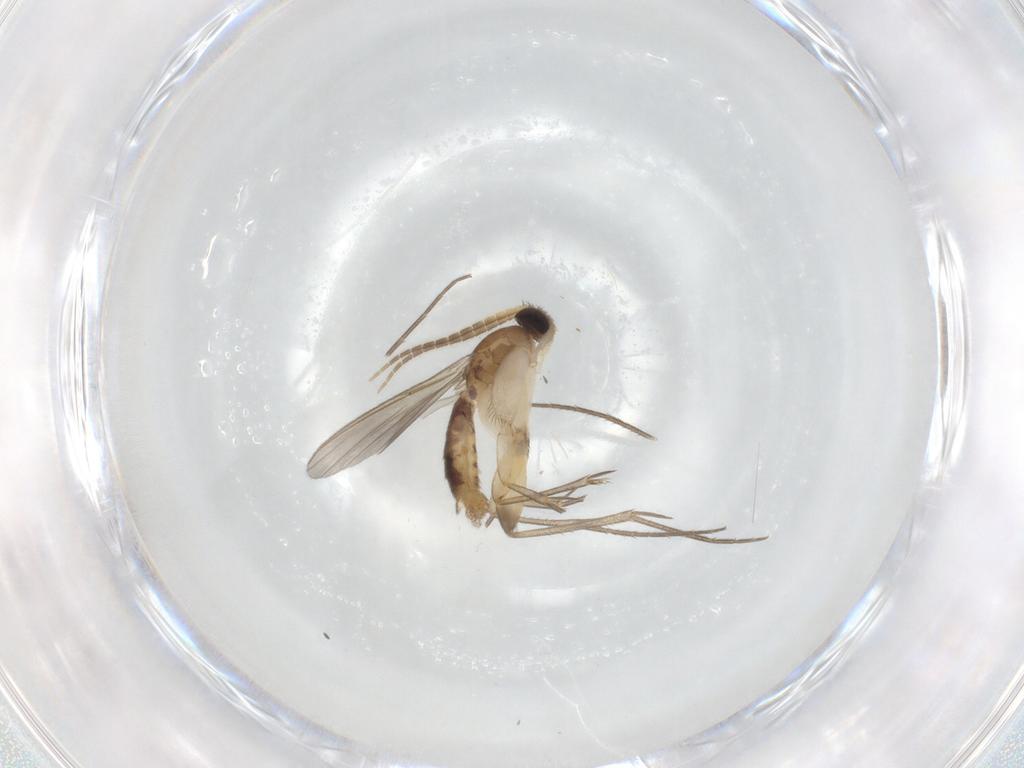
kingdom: Animalia
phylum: Arthropoda
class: Insecta
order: Diptera
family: Mycetophilidae
